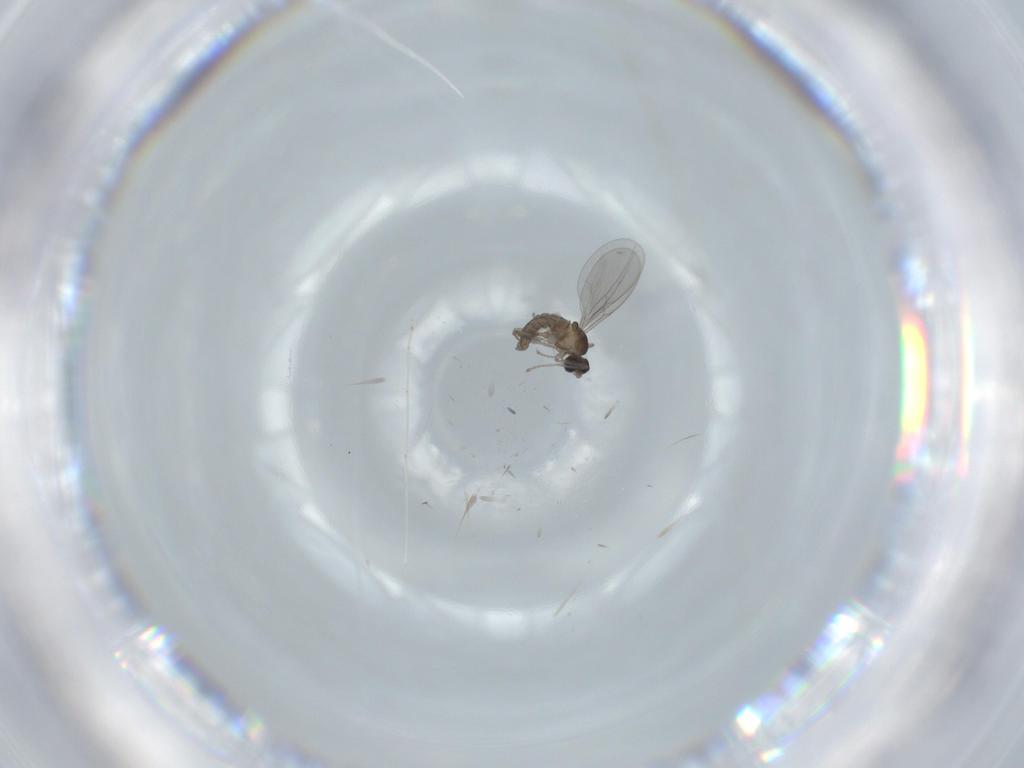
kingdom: Animalia
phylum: Arthropoda
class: Insecta
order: Diptera
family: Cecidomyiidae
